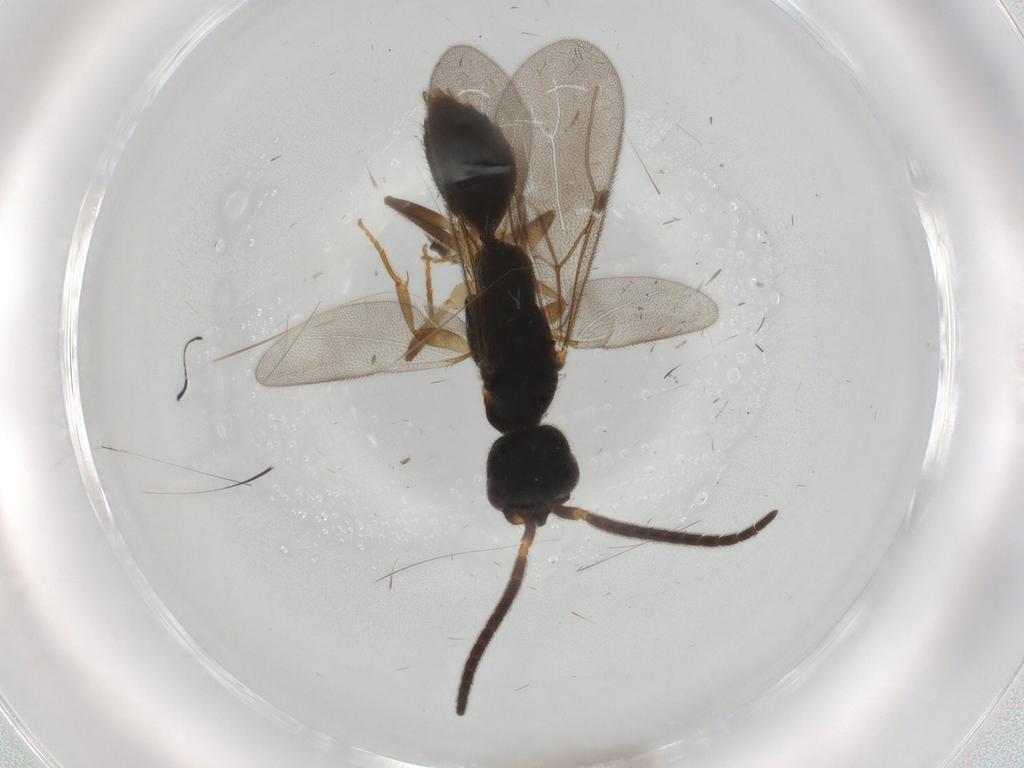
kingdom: Animalia
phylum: Arthropoda
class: Insecta
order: Hymenoptera
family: Bethylidae
